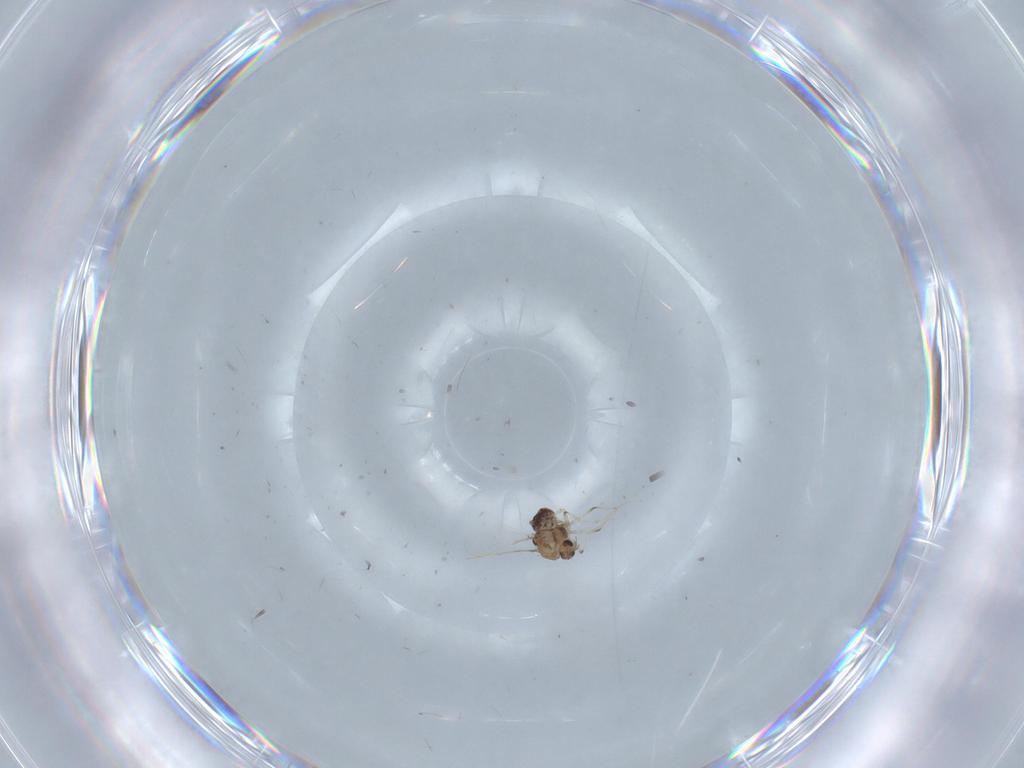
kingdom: Animalia
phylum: Arthropoda
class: Insecta
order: Diptera
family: Chironomidae
